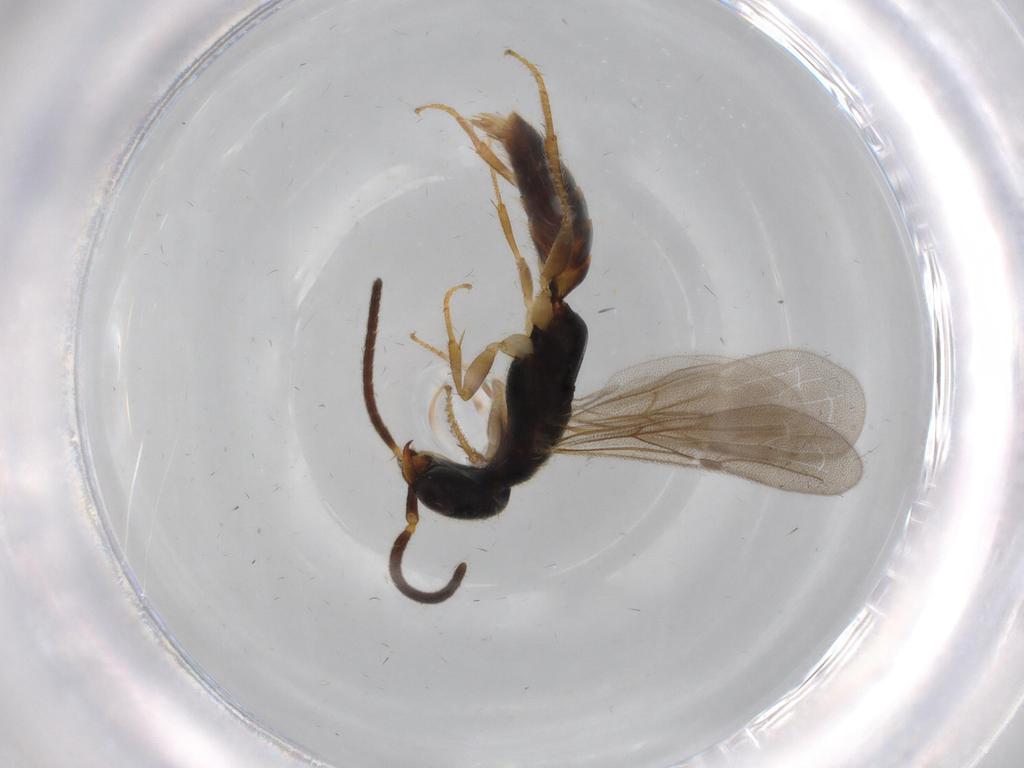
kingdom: Animalia
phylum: Arthropoda
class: Insecta
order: Hymenoptera
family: Bethylidae
